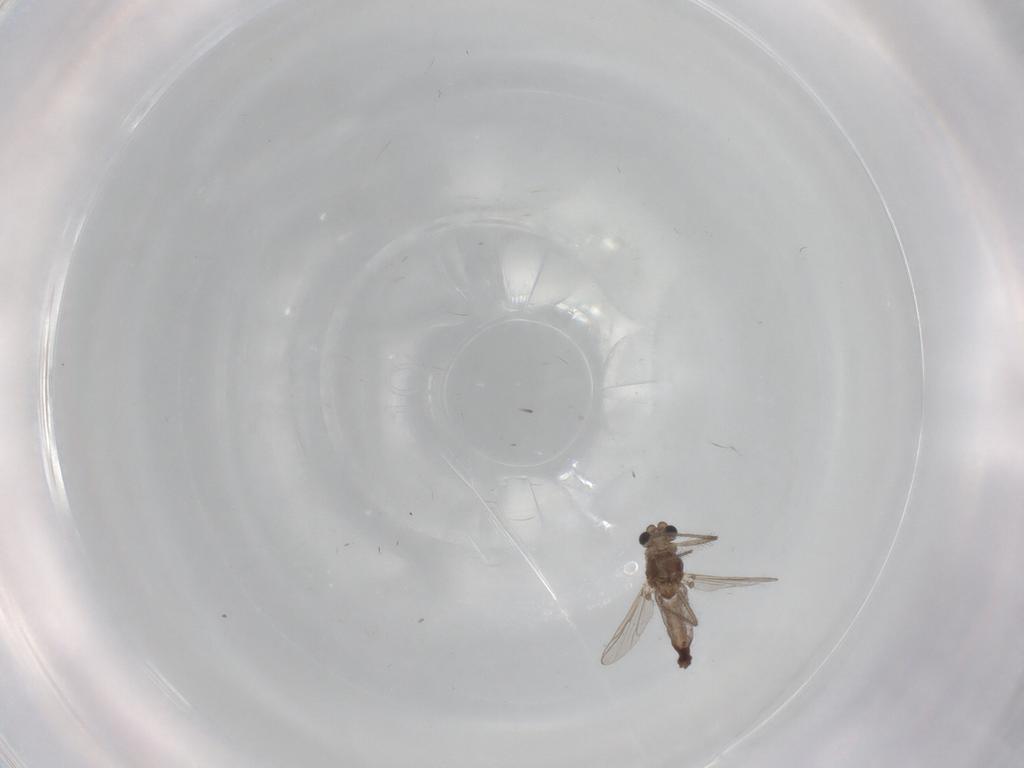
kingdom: Animalia
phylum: Arthropoda
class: Insecta
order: Diptera
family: Chironomidae
